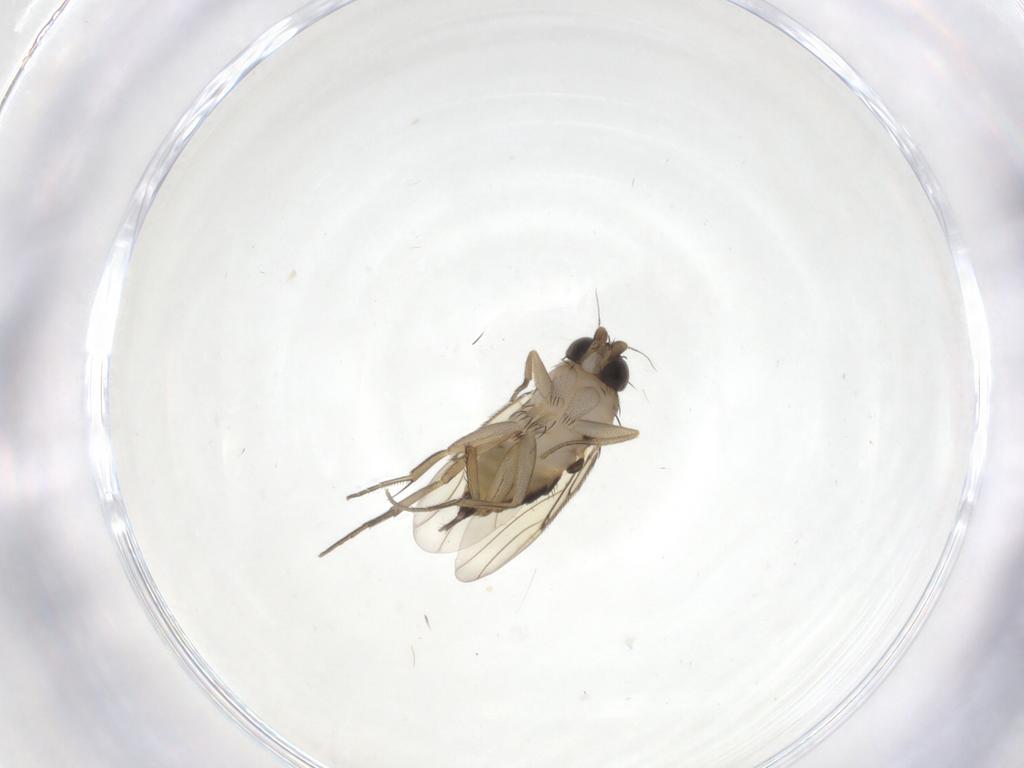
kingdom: Animalia
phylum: Arthropoda
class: Insecta
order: Diptera
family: Phoridae
